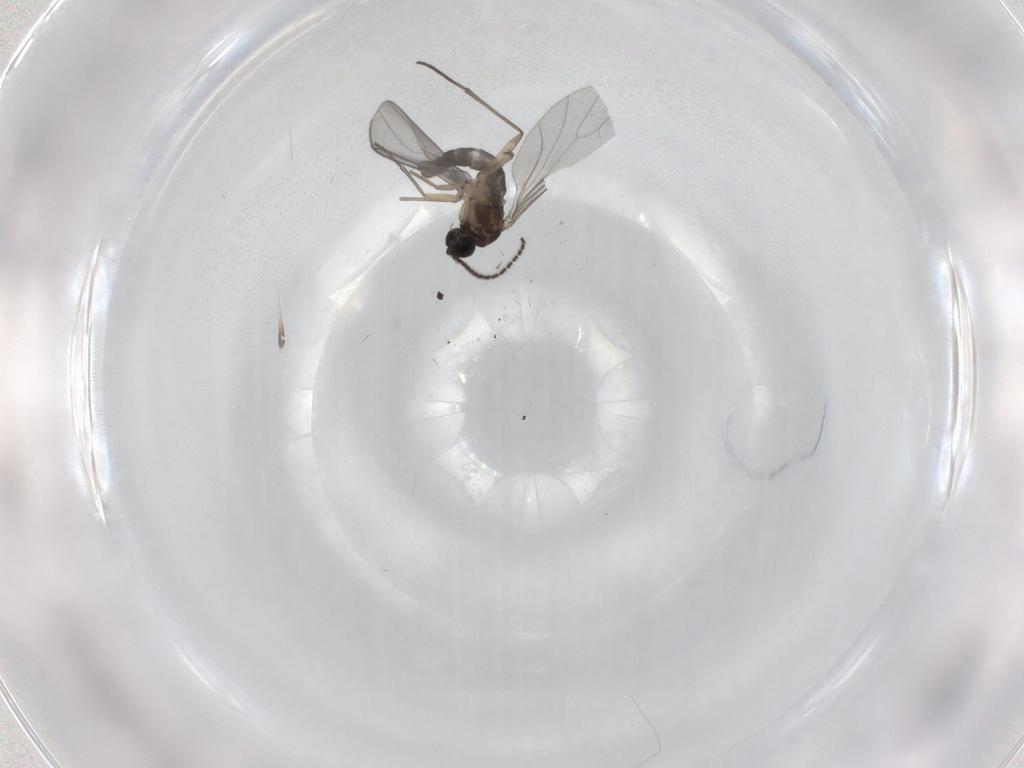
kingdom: Animalia
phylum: Arthropoda
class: Insecta
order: Diptera
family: Sciaridae
